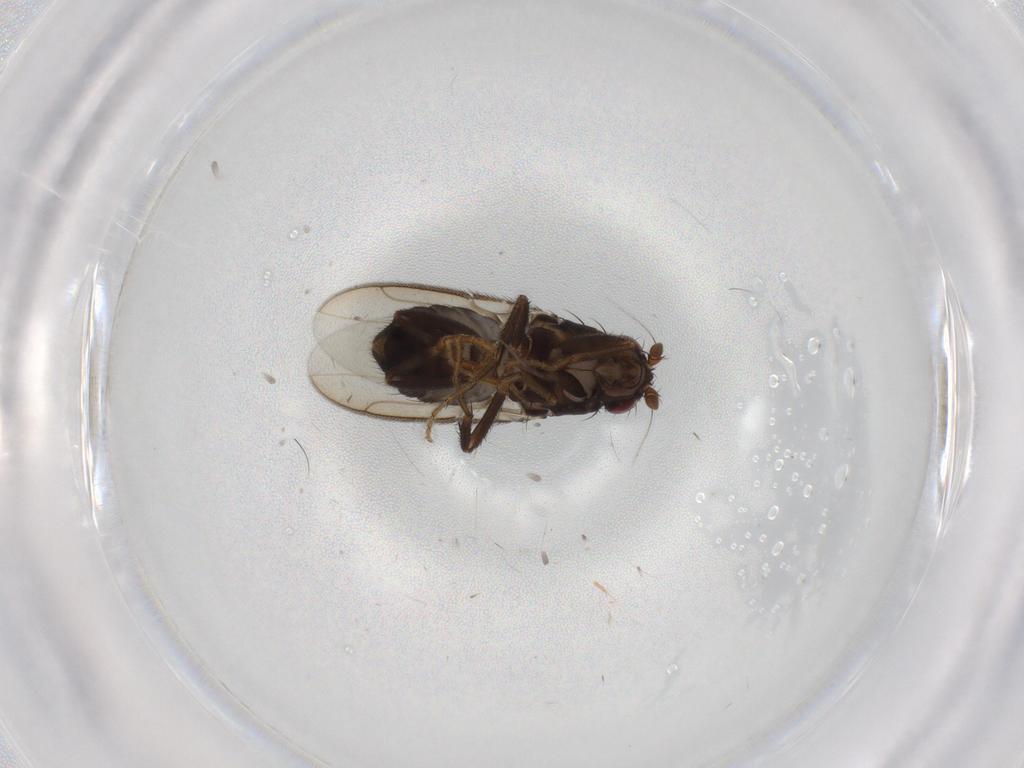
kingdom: Animalia
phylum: Arthropoda
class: Insecta
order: Diptera
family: Sphaeroceridae
